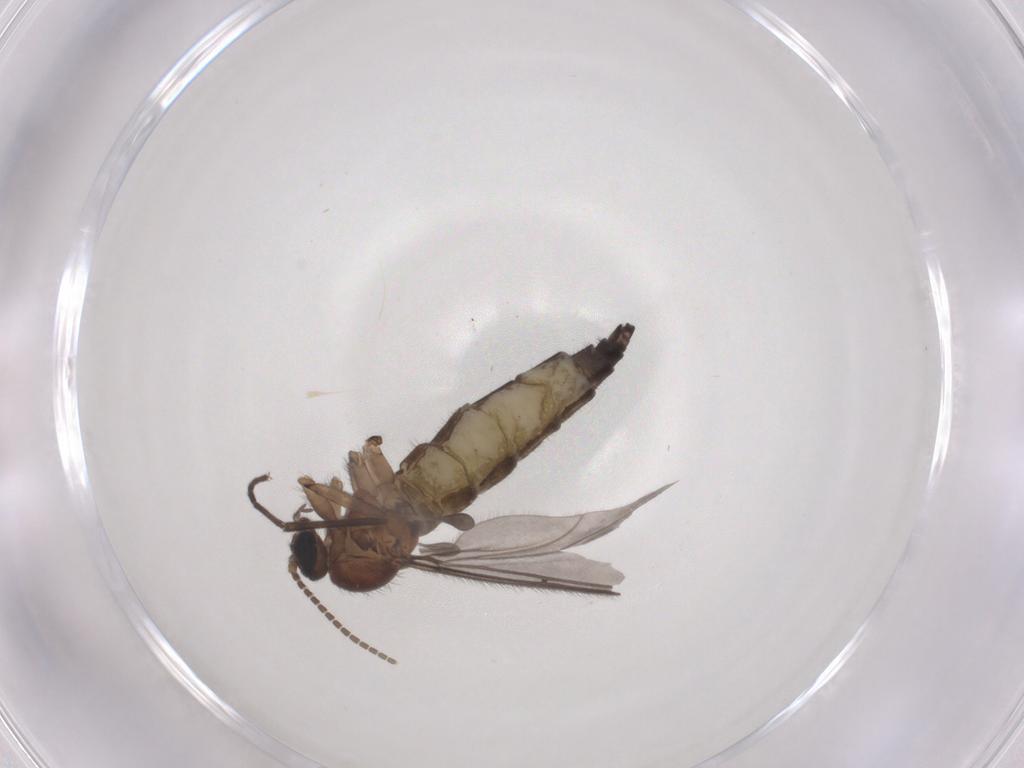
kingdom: Animalia
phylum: Arthropoda
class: Insecta
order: Diptera
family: Sciaridae
